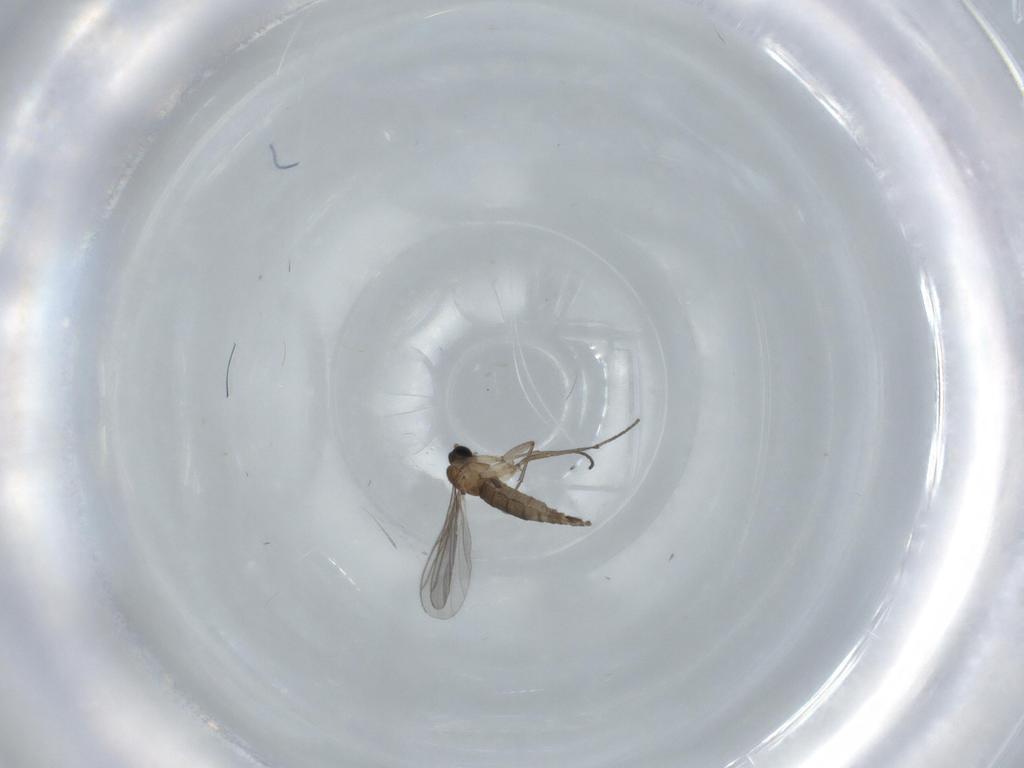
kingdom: Animalia
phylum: Arthropoda
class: Insecta
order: Diptera
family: Sciaridae
